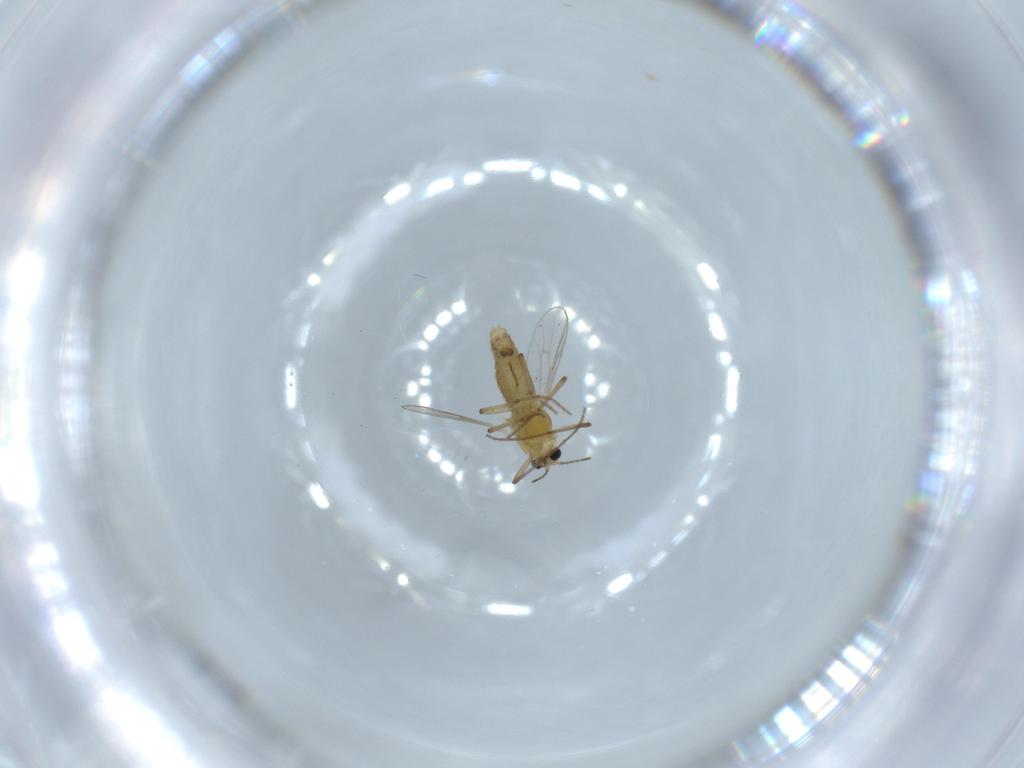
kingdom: Animalia
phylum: Arthropoda
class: Insecta
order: Diptera
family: Chironomidae
